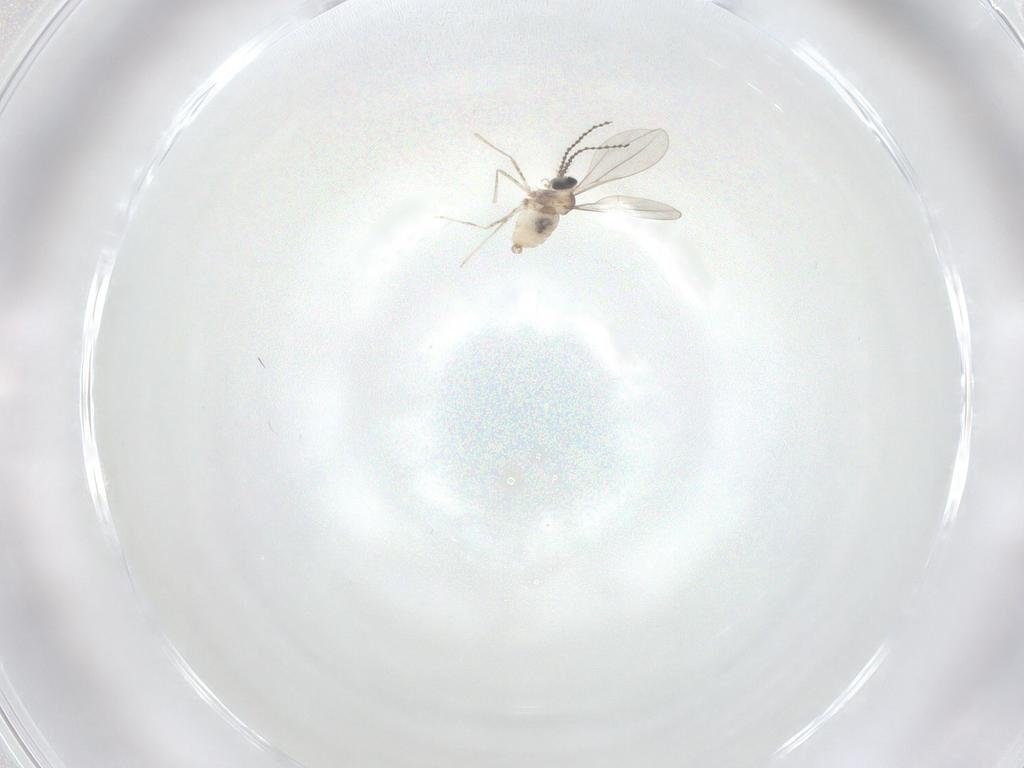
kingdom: Animalia
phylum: Arthropoda
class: Insecta
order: Diptera
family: Cecidomyiidae
